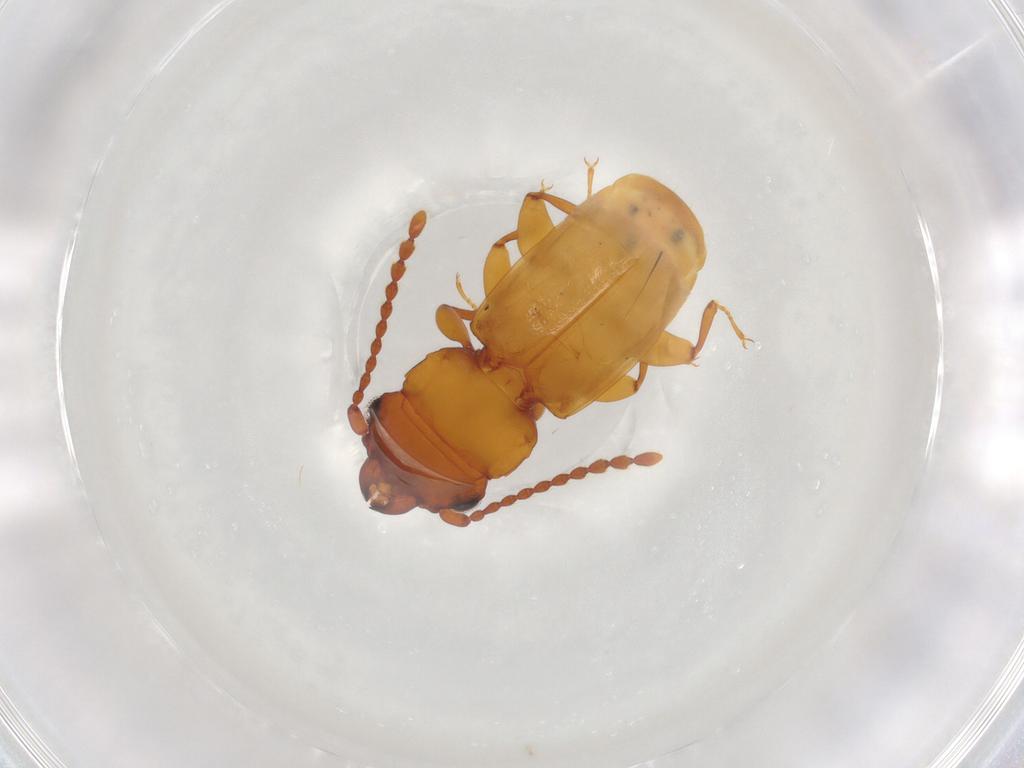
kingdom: Animalia
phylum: Arthropoda
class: Insecta
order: Coleoptera
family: Laemophloeidae
